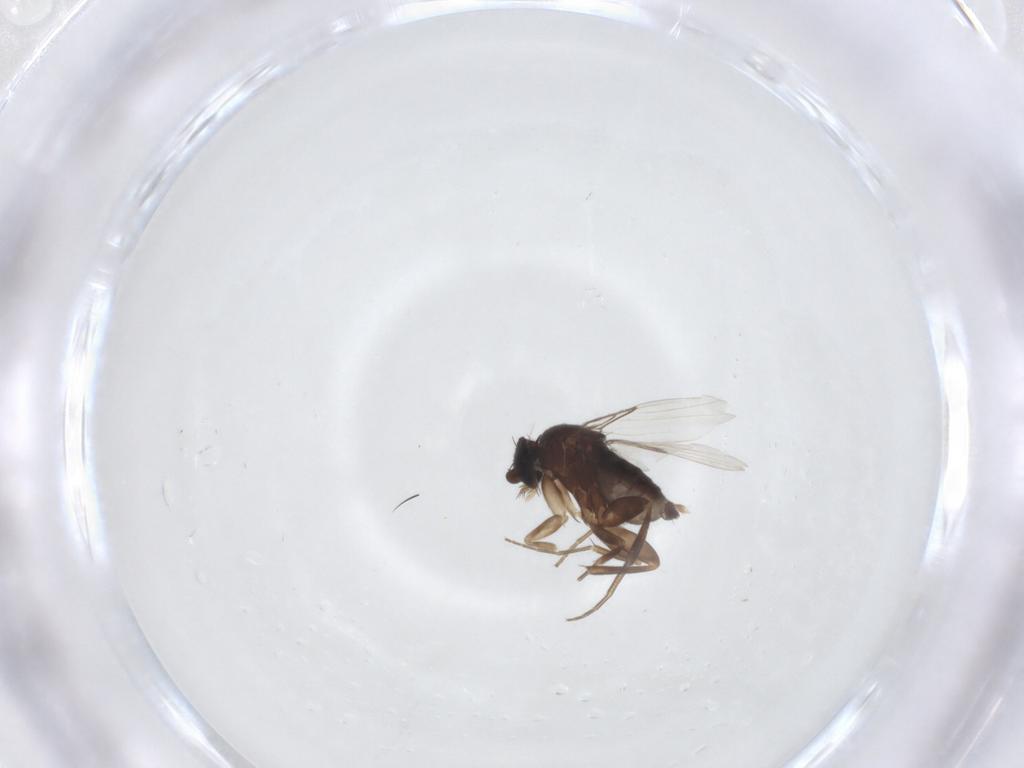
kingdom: Animalia
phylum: Arthropoda
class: Insecta
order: Diptera
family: Phoridae
